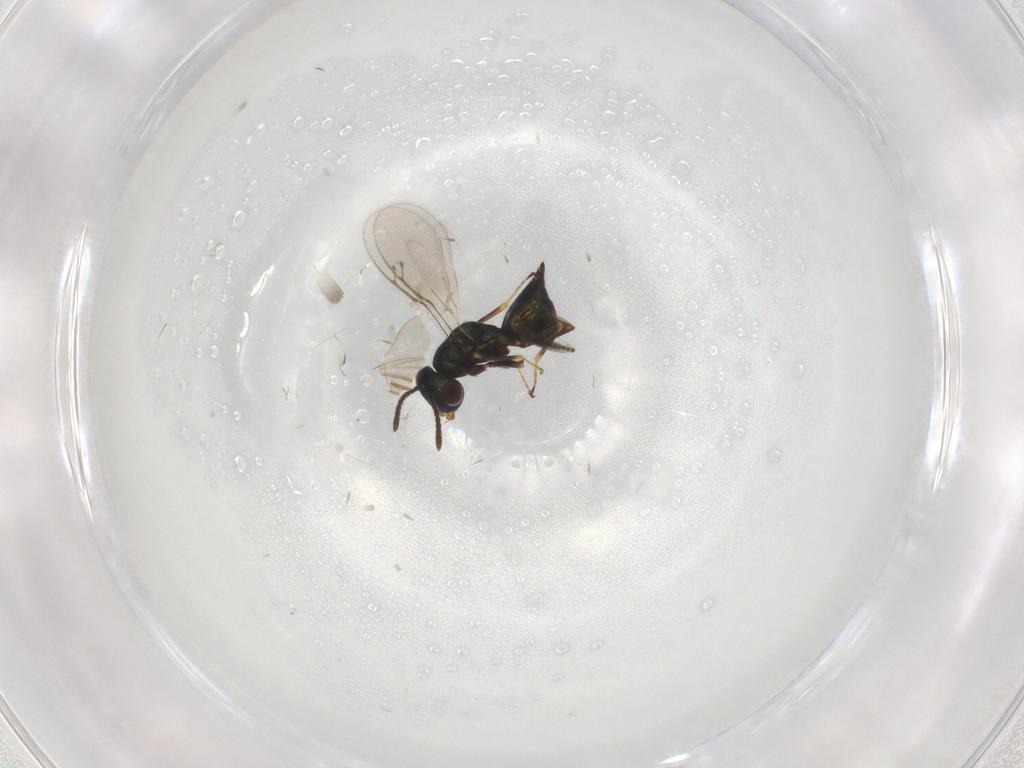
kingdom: Animalia
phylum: Arthropoda
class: Insecta
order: Hymenoptera
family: Pteromalidae
